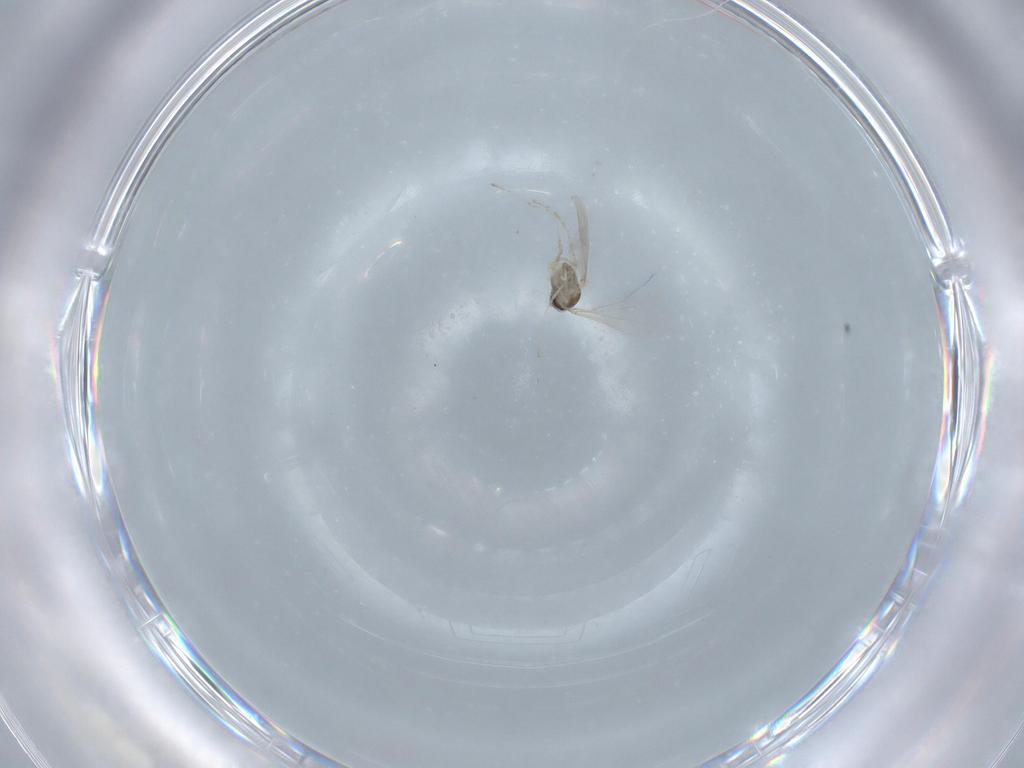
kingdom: Animalia
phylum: Arthropoda
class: Insecta
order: Diptera
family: Cecidomyiidae
